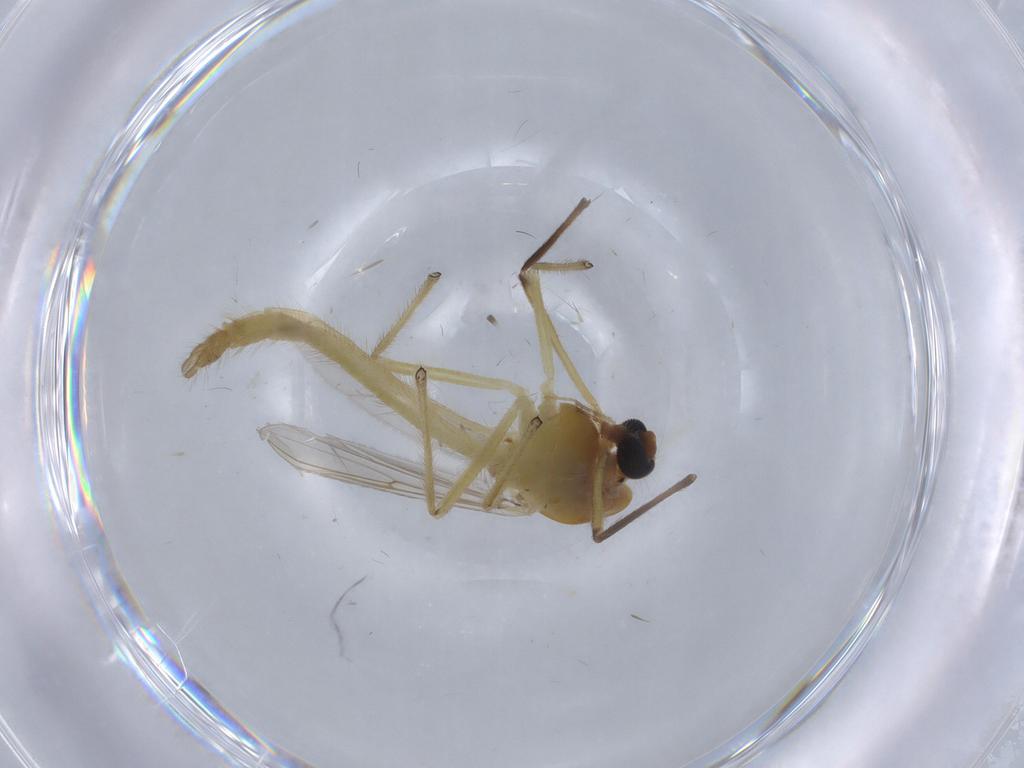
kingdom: Animalia
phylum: Arthropoda
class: Insecta
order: Diptera
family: Chironomidae
